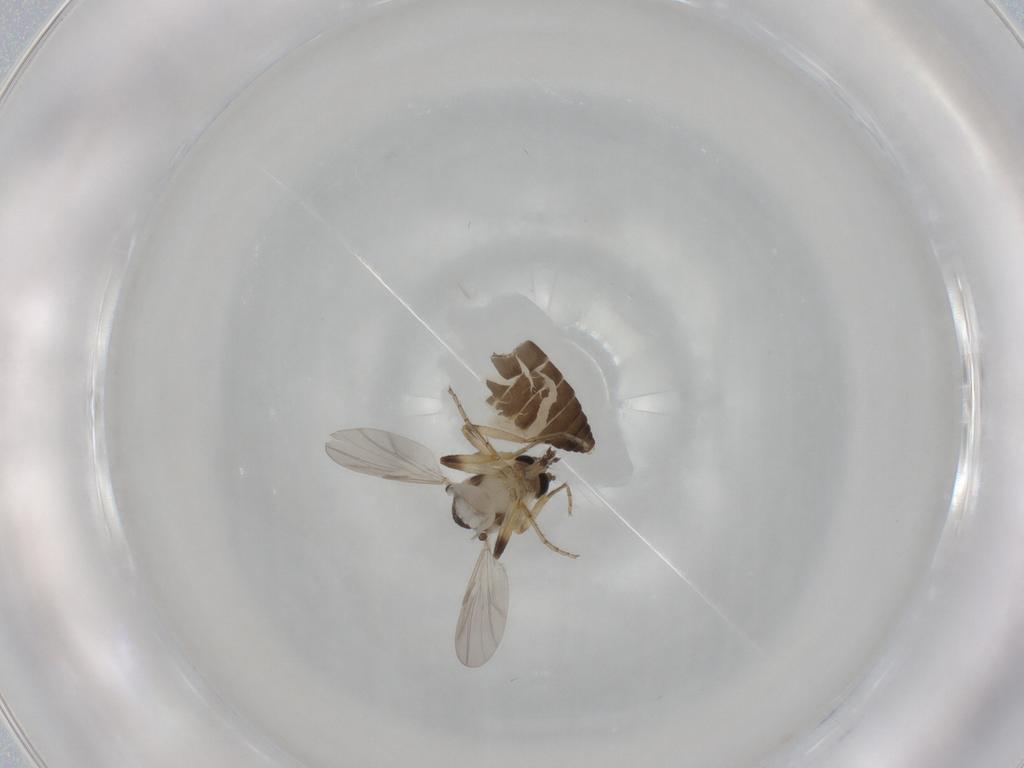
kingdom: Animalia
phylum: Arthropoda
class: Insecta
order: Diptera
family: Ceratopogonidae
